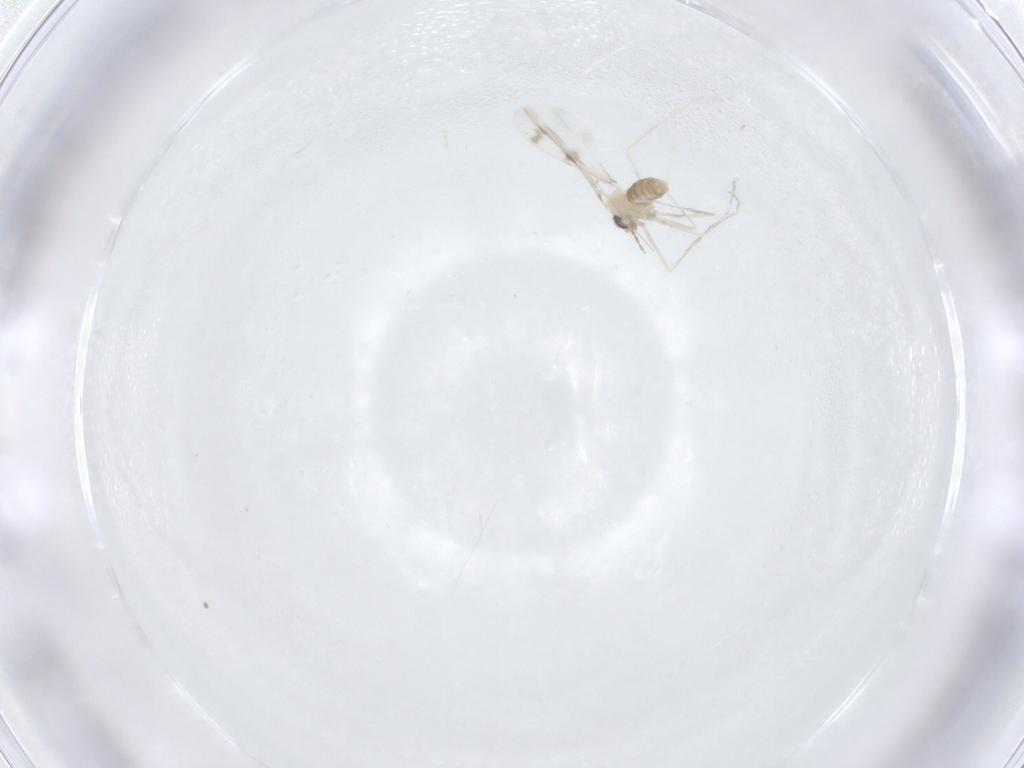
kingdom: Animalia
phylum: Arthropoda
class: Insecta
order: Diptera
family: Cecidomyiidae
